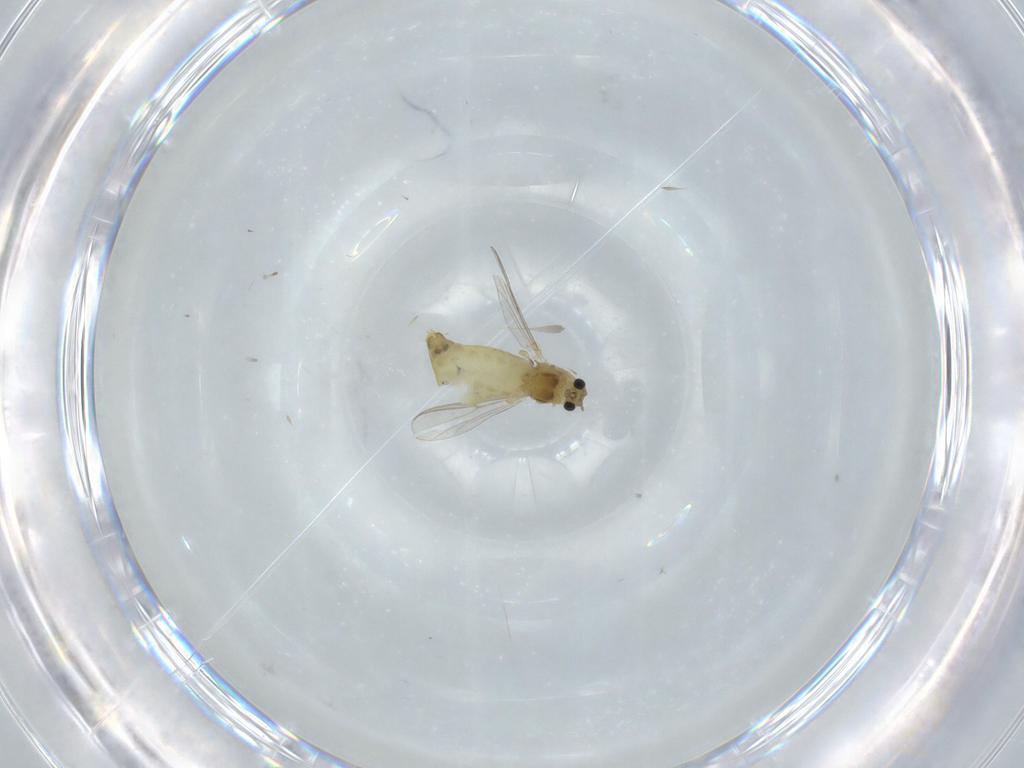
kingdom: Animalia
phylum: Arthropoda
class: Insecta
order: Diptera
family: Chironomidae
